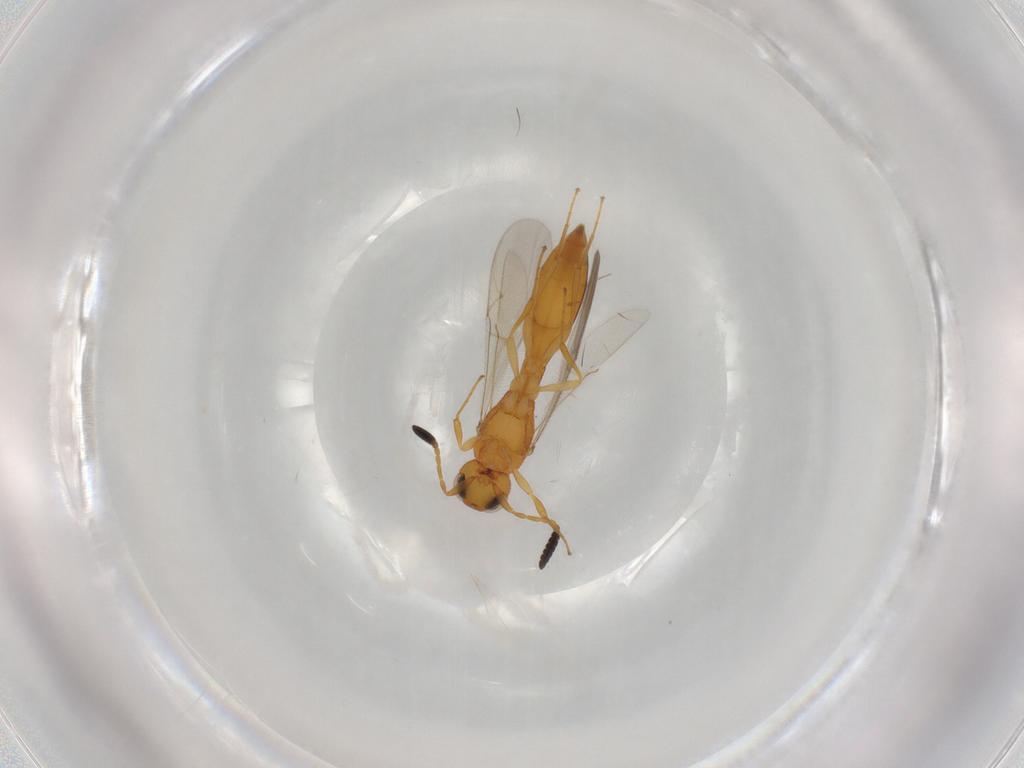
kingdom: Animalia
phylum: Arthropoda
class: Insecta
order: Hymenoptera
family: Scelionidae
